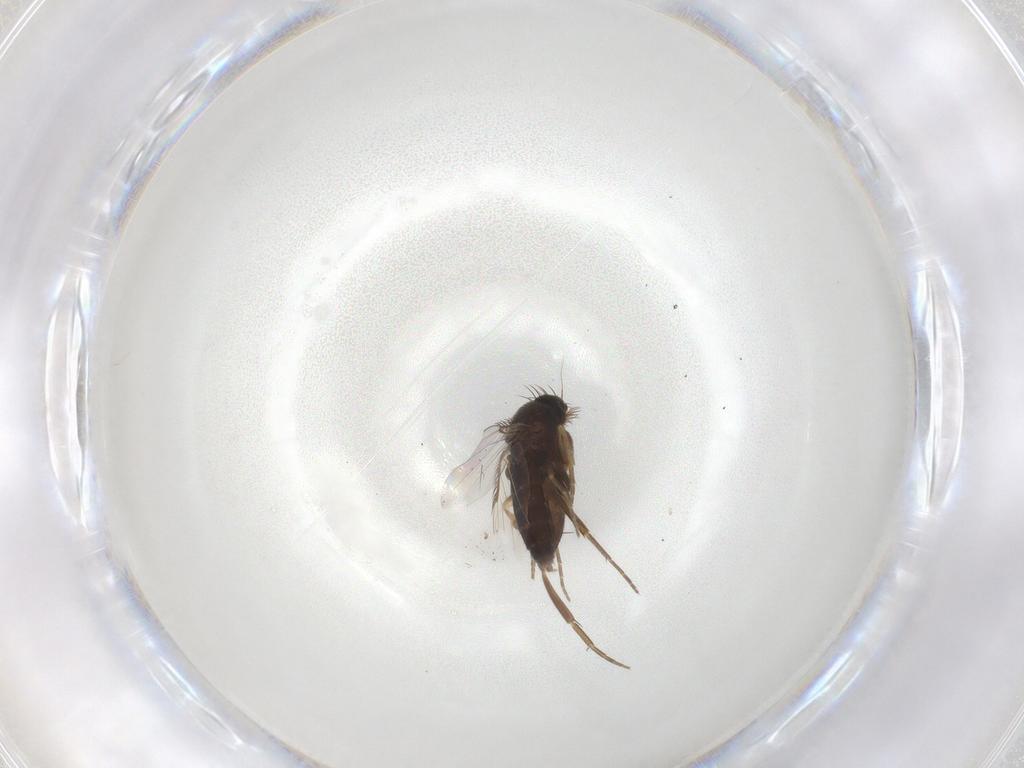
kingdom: Animalia
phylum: Arthropoda
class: Insecta
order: Diptera
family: Phoridae
